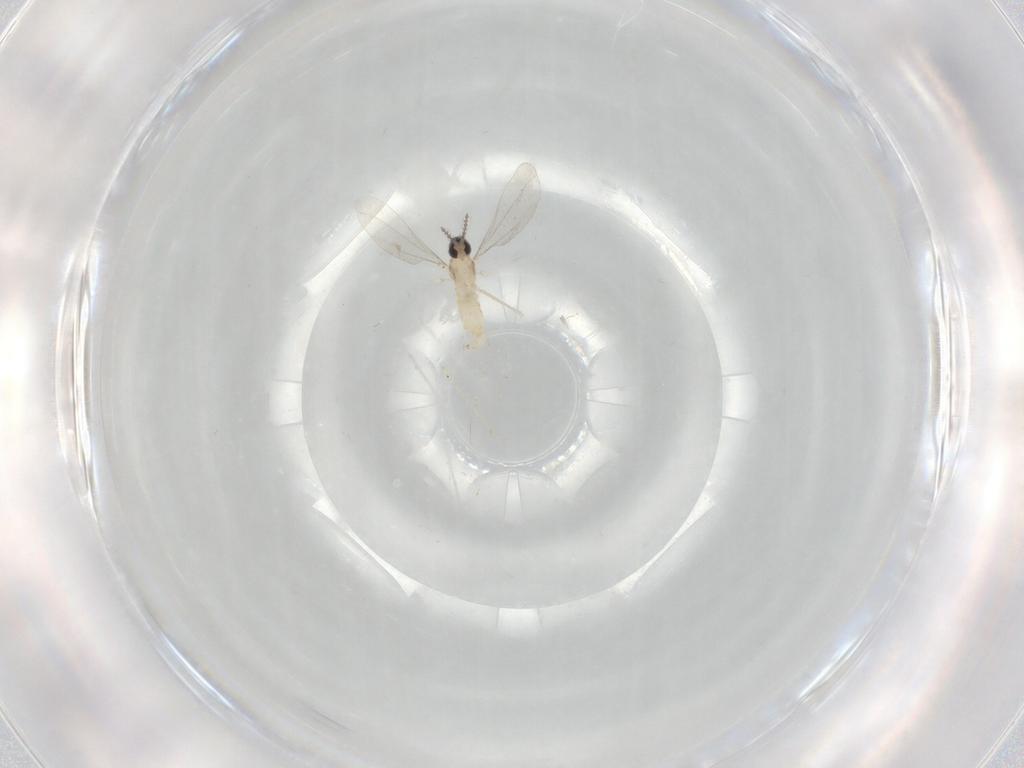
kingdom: Animalia
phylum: Arthropoda
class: Insecta
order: Diptera
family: Cecidomyiidae
